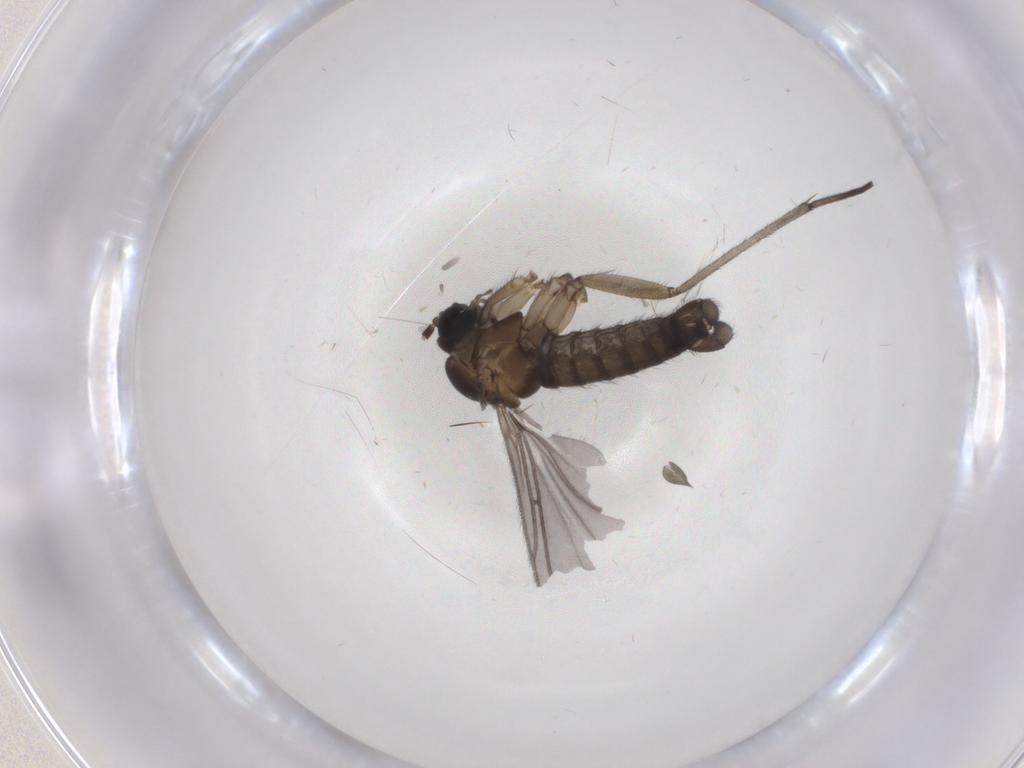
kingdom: Animalia
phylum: Arthropoda
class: Insecta
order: Diptera
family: Sciaridae
